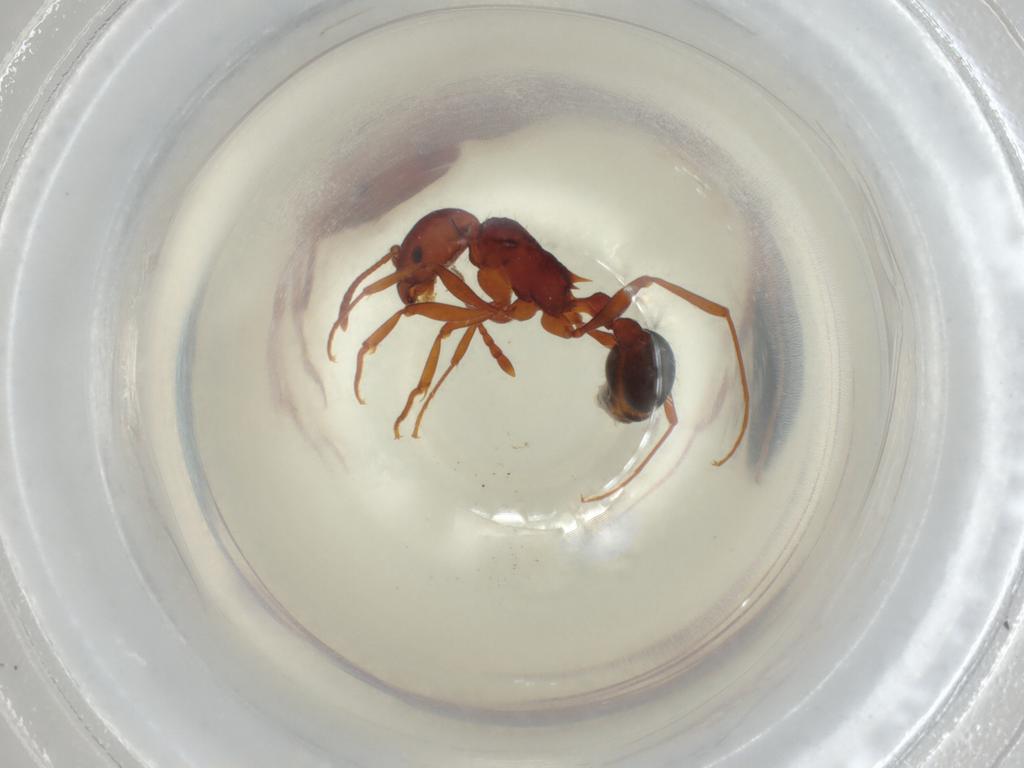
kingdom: Animalia
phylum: Arthropoda
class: Insecta
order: Hymenoptera
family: Formicidae
